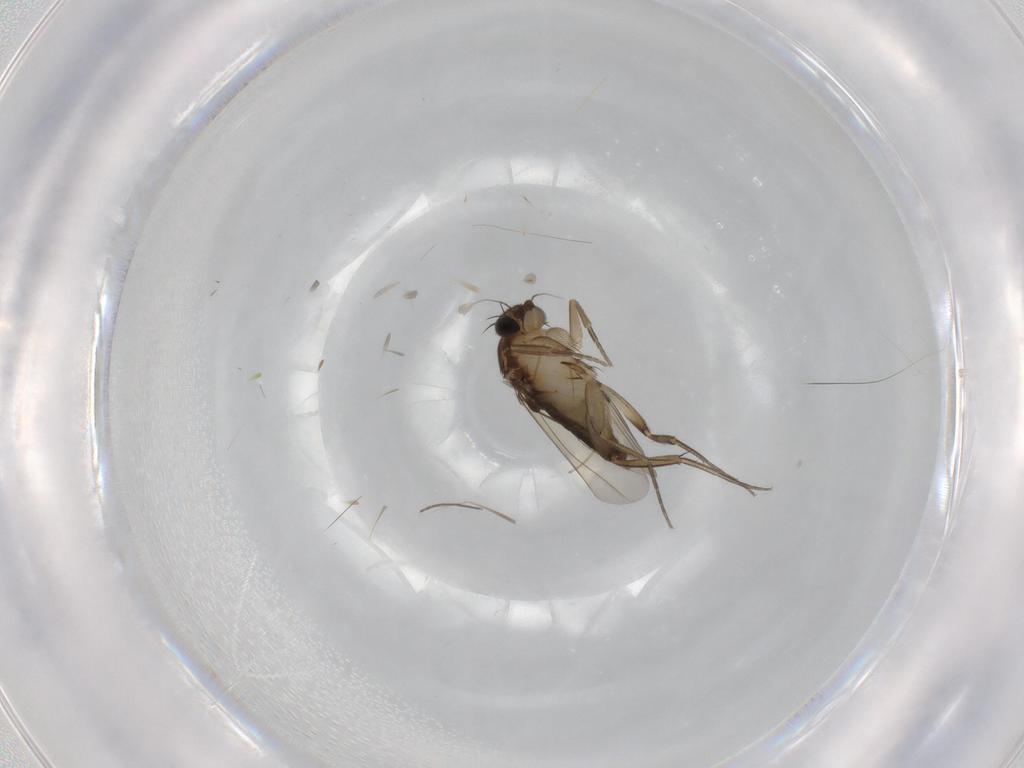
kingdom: Animalia
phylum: Arthropoda
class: Insecta
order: Diptera
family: Phoridae
